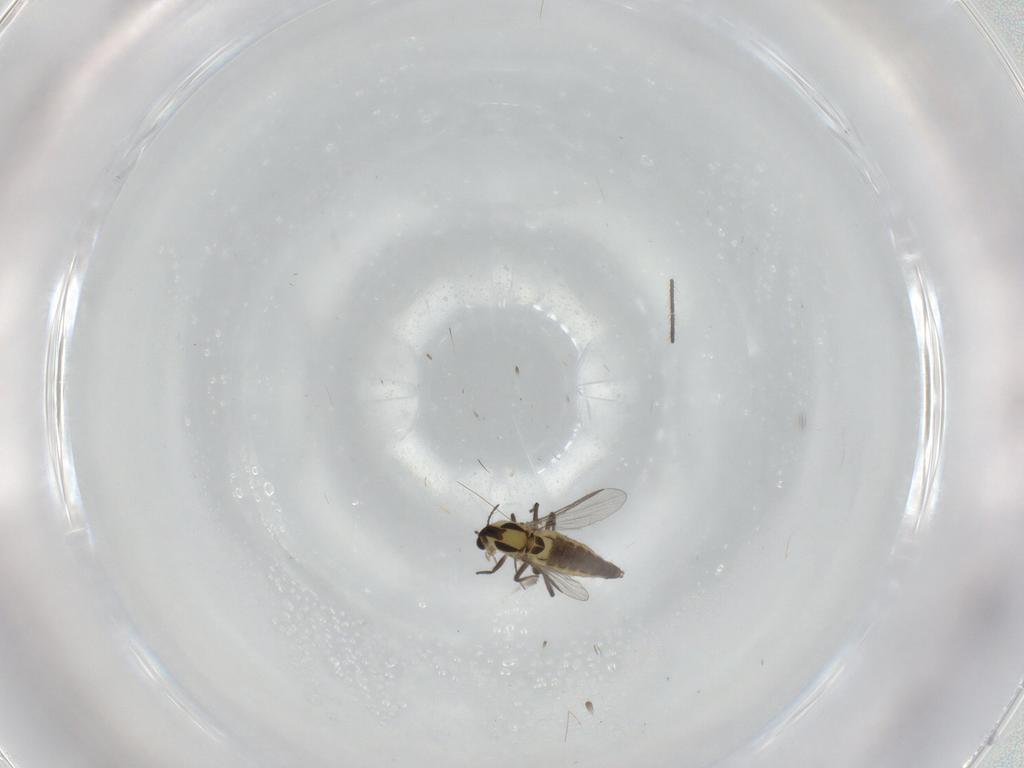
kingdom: Animalia
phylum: Arthropoda
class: Insecta
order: Diptera
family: Chironomidae
